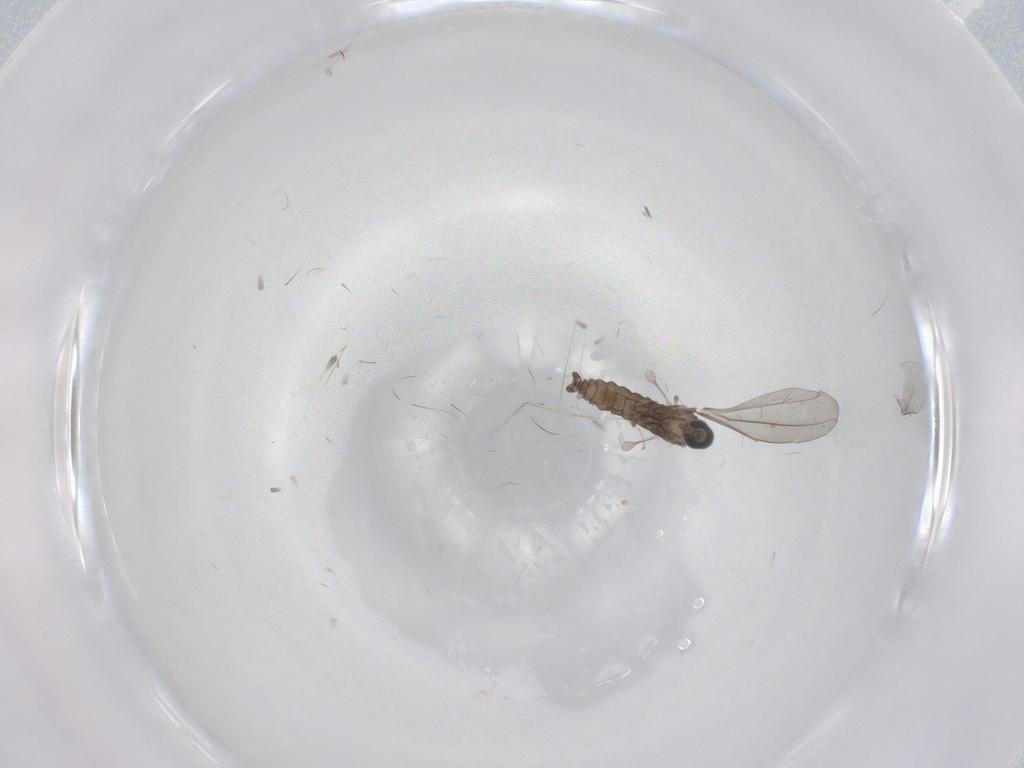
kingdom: Animalia
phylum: Arthropoda
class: Insecta
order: Diptera
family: Cecidomyiidae
